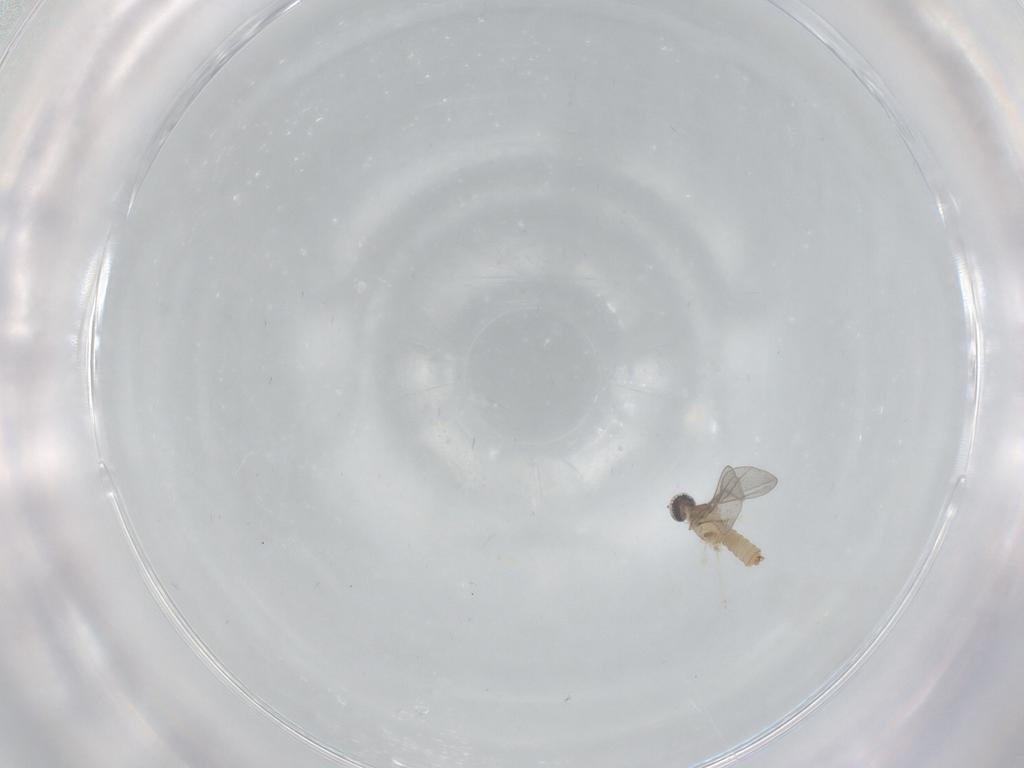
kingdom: Animalia
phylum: Arthropoda
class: Insecta
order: Diptera
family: Cecidomyiidae
